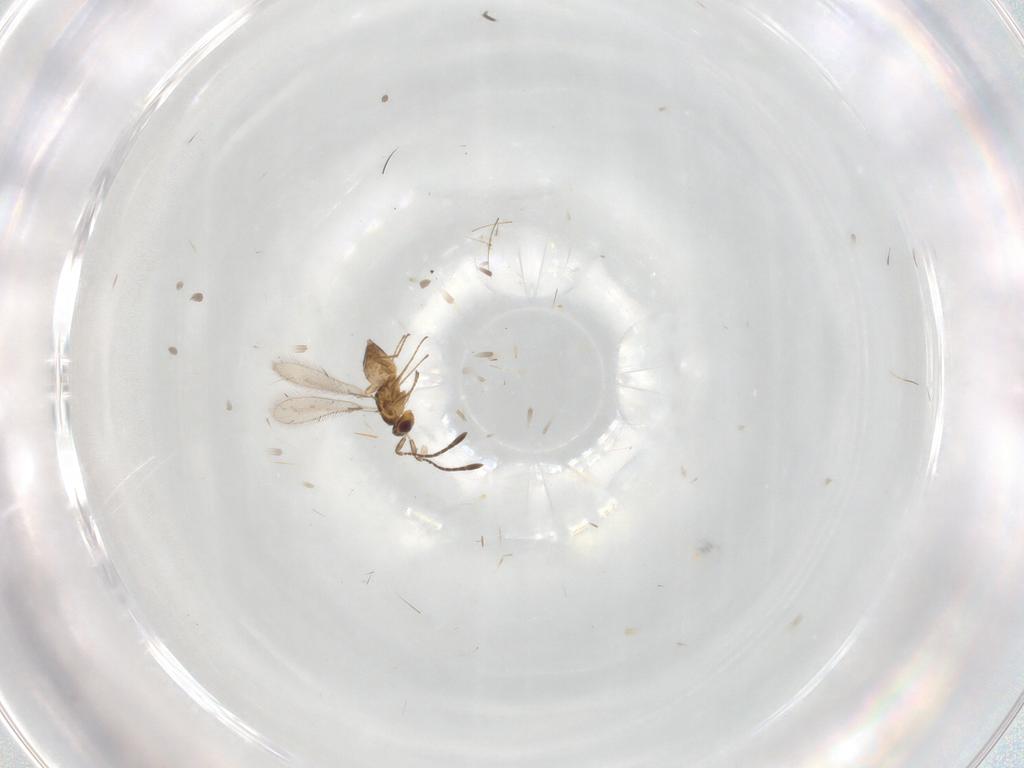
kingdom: Animalia
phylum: Arthropoda
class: Insecta
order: Hymenoptera
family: Mymaridae
